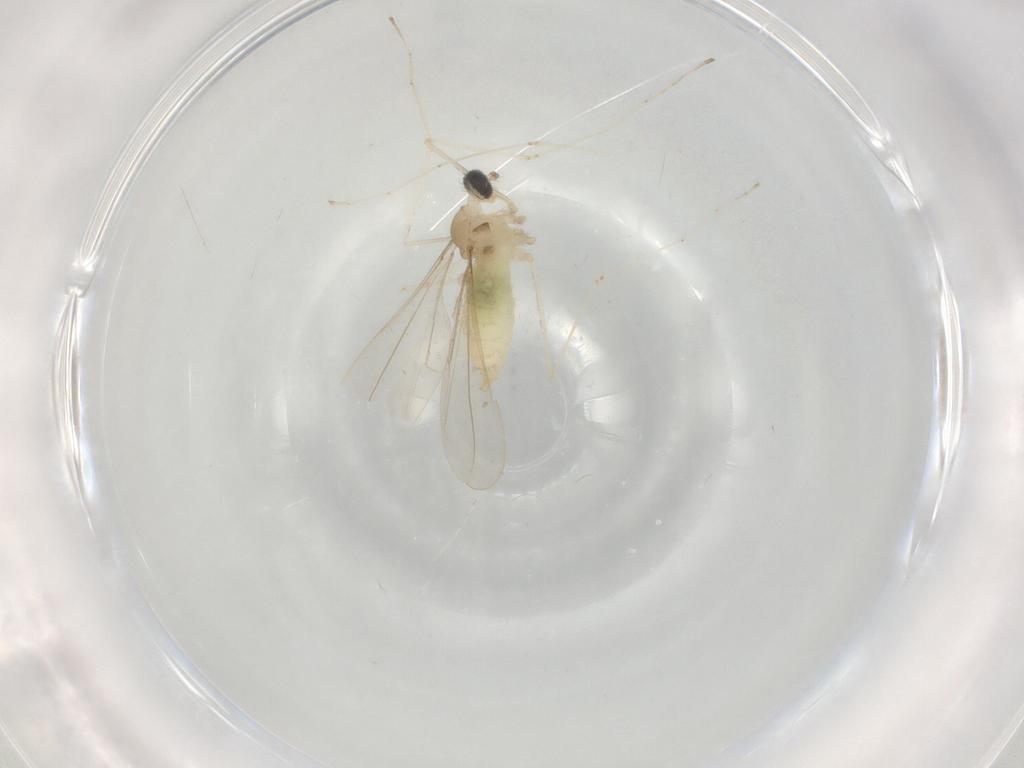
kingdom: Animalia
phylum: Arthropoda
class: Insecta
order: Diptera
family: Cecidomyiidae
